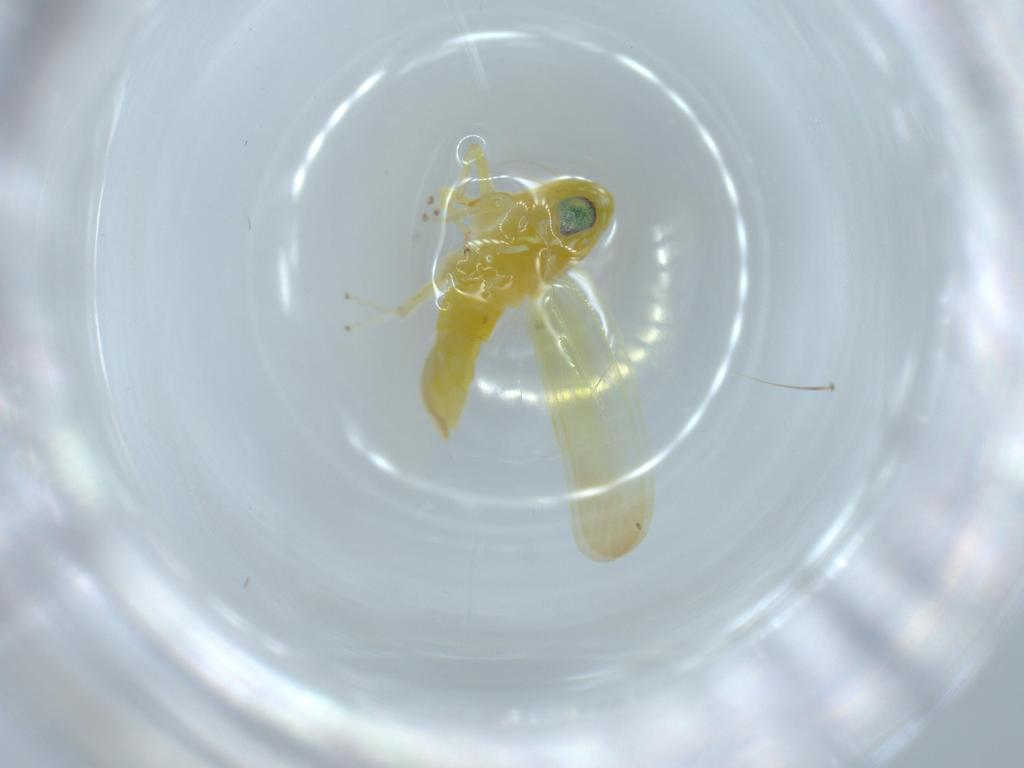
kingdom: Animalia
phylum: Arthropoda
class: Insecta
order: Hemiptera
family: Cicadellidae
